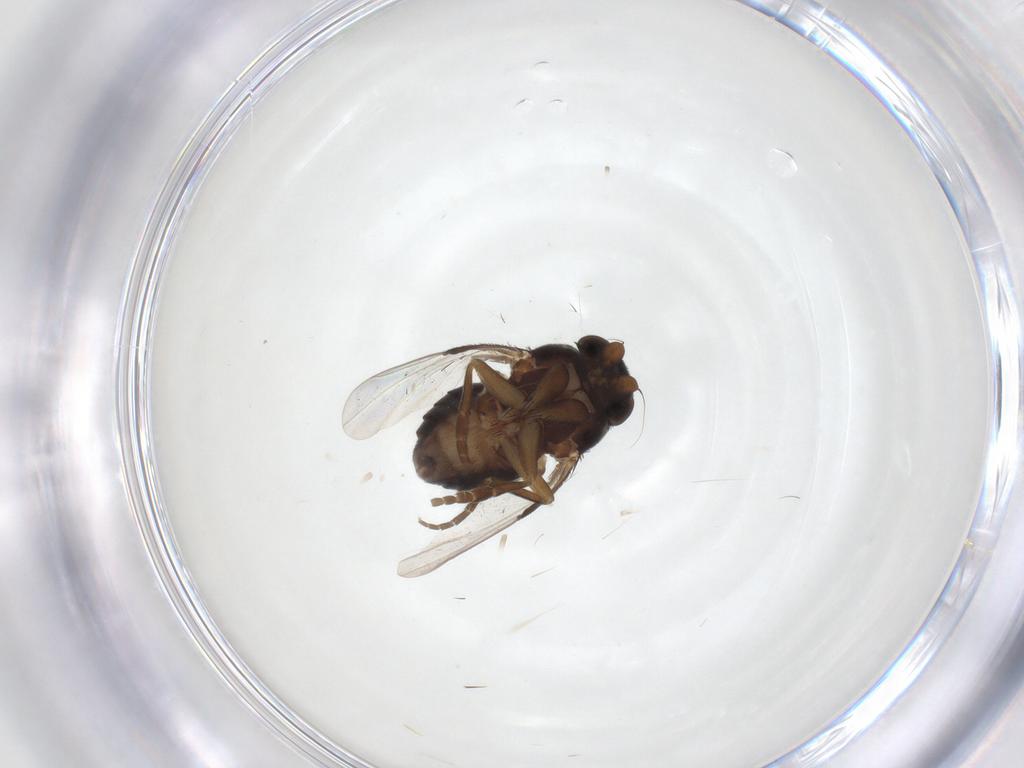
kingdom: Animalia
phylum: Arthropoda
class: Insecta
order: Diptera
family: Phoridae
